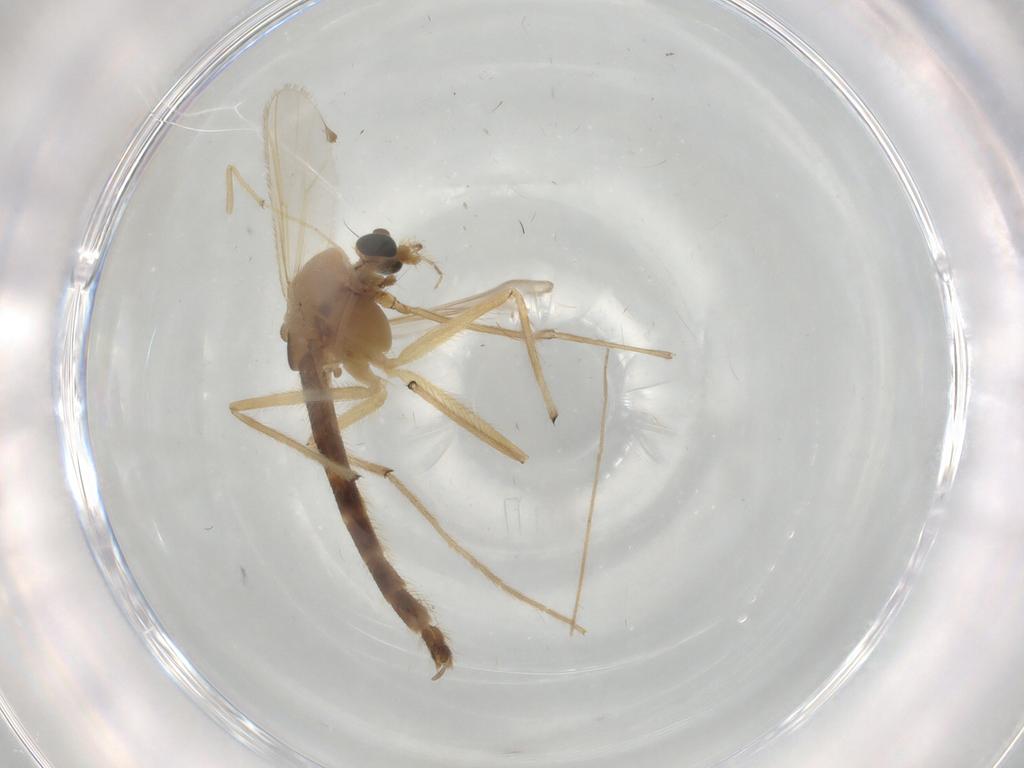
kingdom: Animalia
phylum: Arthropoda
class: Insecta
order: Diptera
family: Chironomidae
